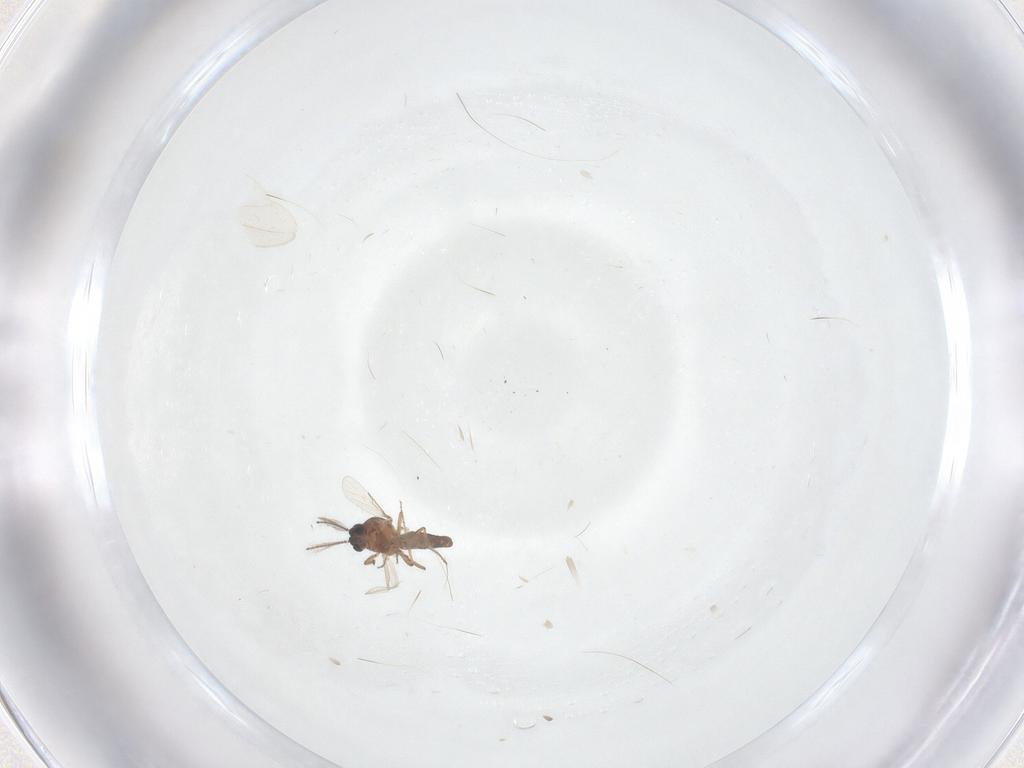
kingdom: Animalia
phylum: Arthropoda
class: Insecta
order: Diptera
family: Ceratopogonidae
